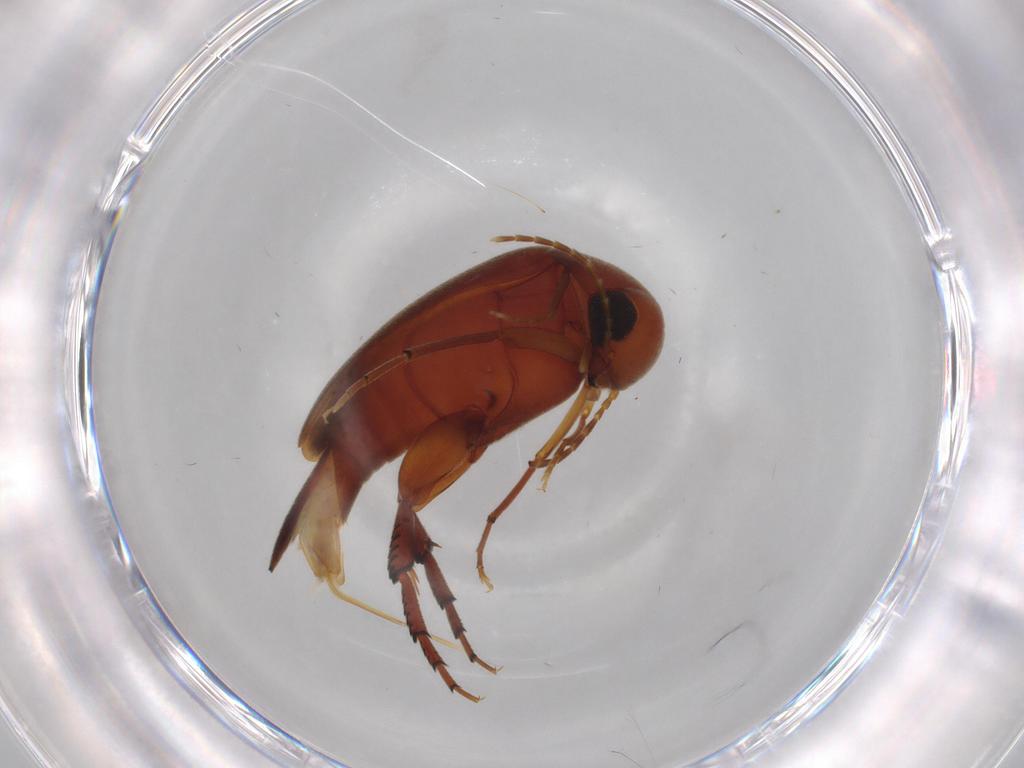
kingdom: Animalia
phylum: Arthropoda
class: Insecta
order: Coleoptera
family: Mordellidae
